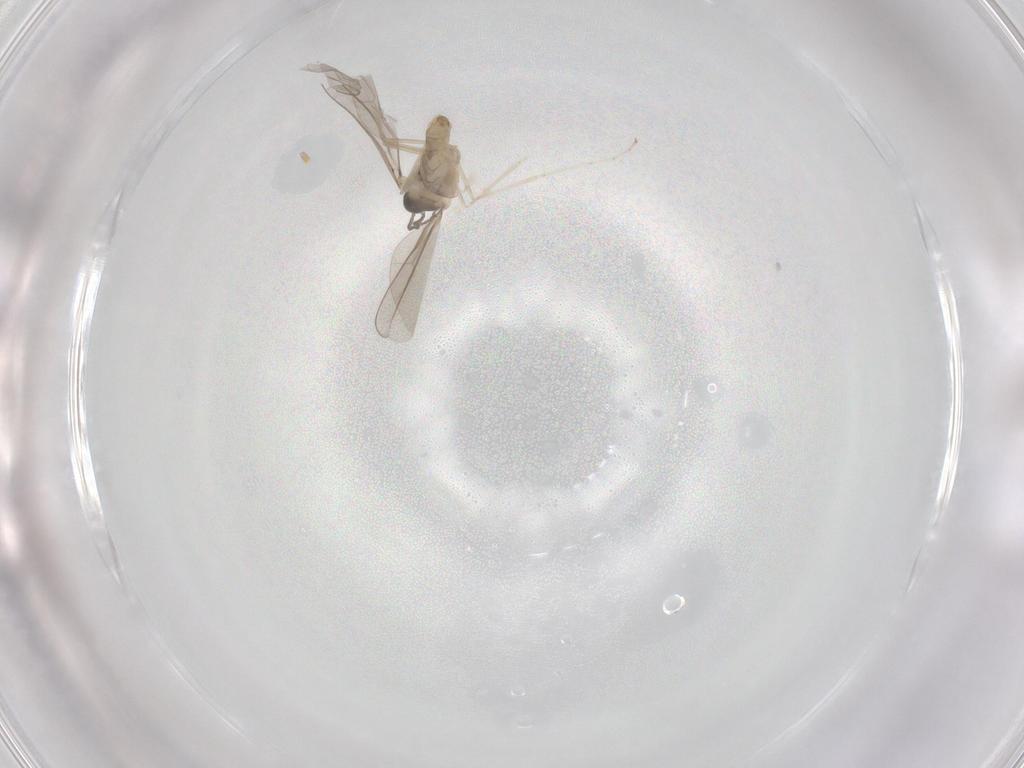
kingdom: Animalia
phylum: Arthropoda
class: Insecta
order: Diptera
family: Cecidomyiidae
